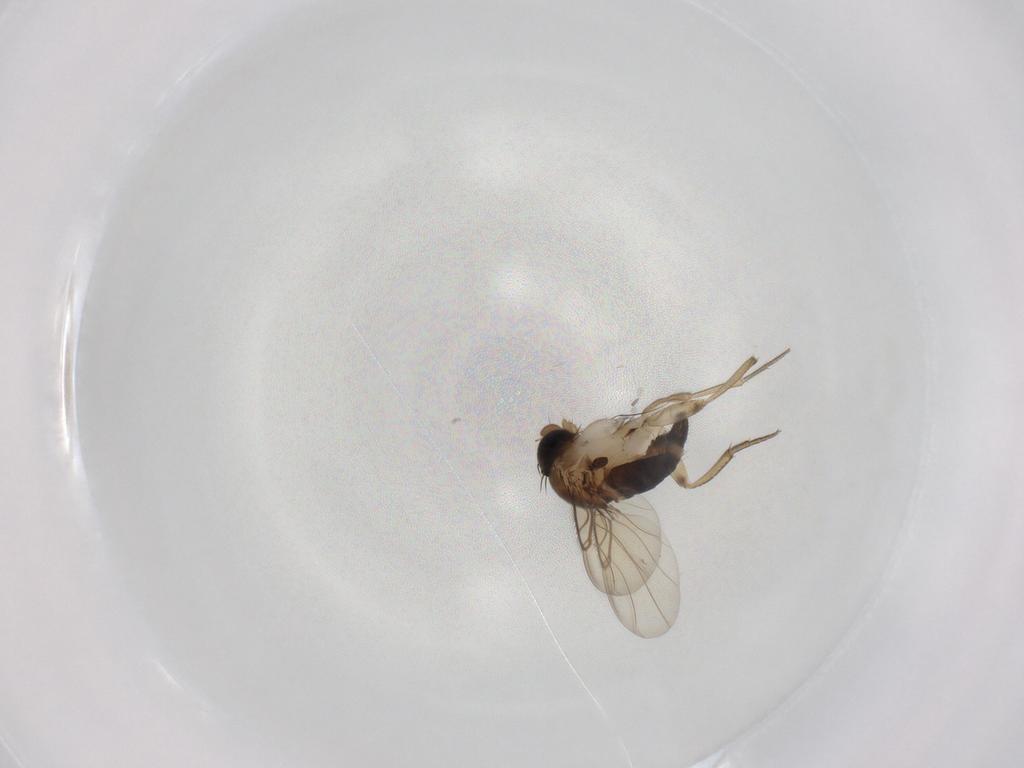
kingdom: Animalia
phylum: Arthropoda
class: Insecta
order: Diptera
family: Phoridae
